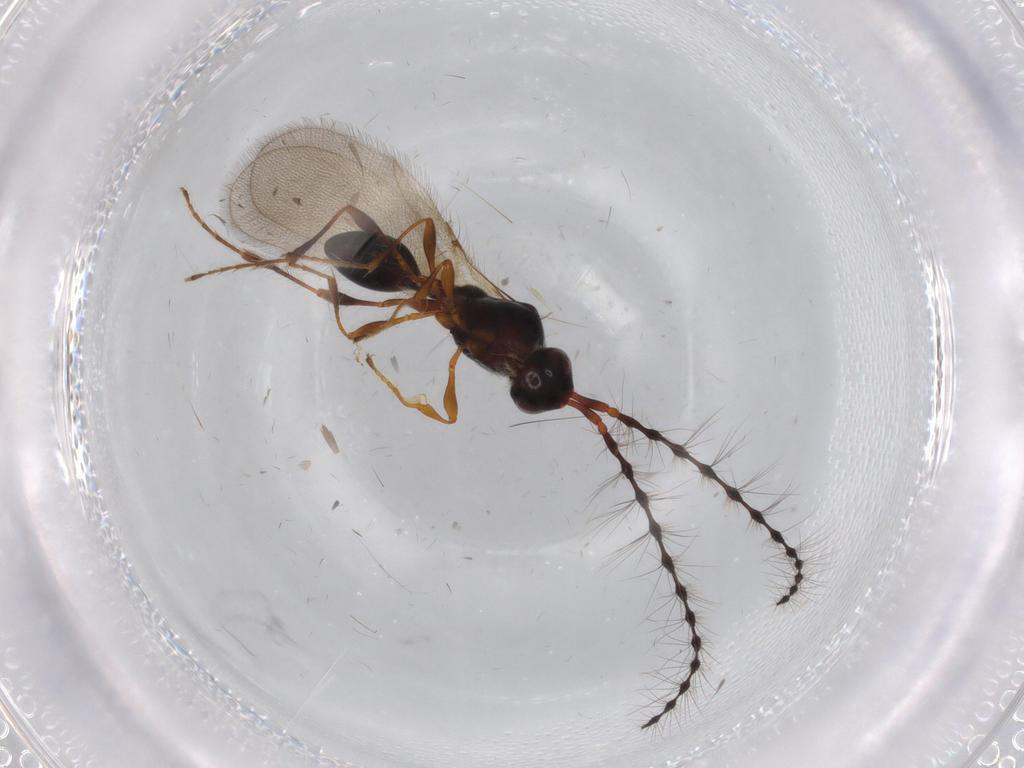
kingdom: Animalia
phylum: Arthropoda
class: Insecta
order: Hymenoptera
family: Diapriidae
